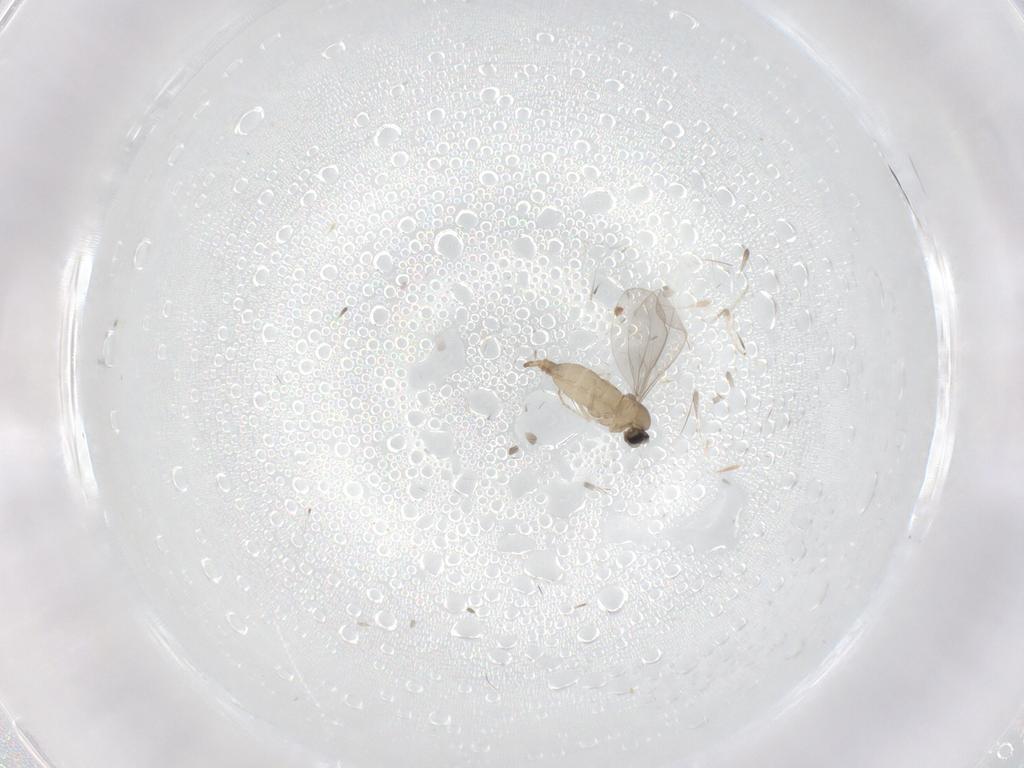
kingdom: Animalia
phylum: Arthropoda
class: Insecta
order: Diptera
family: Cecidomyiidae
